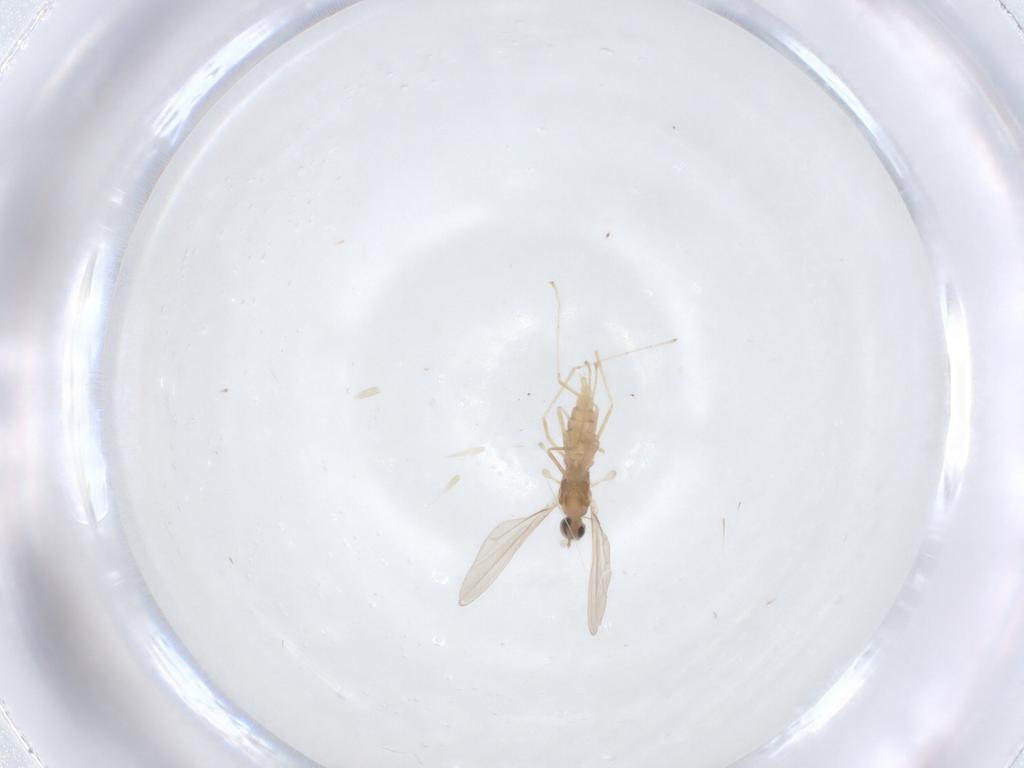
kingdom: Animalia
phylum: Arthropoda
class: Insecta
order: Diptera
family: Cecidomyiidae
